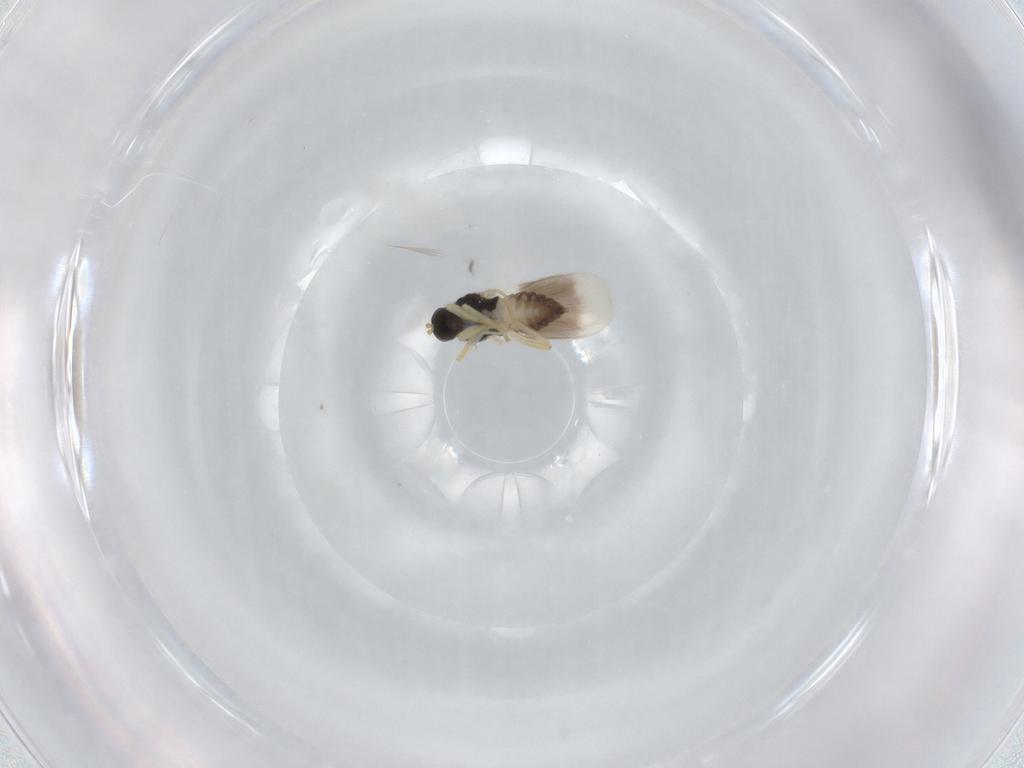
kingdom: Animalia
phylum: Arthropoda
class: Insecta
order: Diptera
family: Hybotidae
